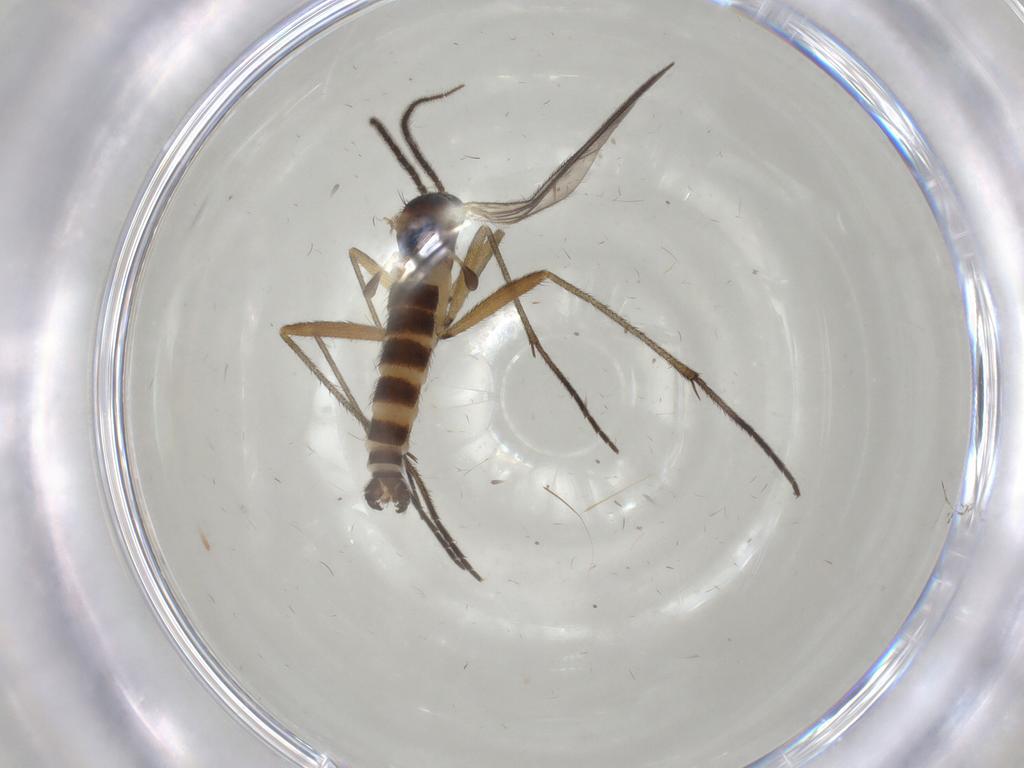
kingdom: Animalia
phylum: Arthropoda
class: Insecta
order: Diptera
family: Sciaridae
